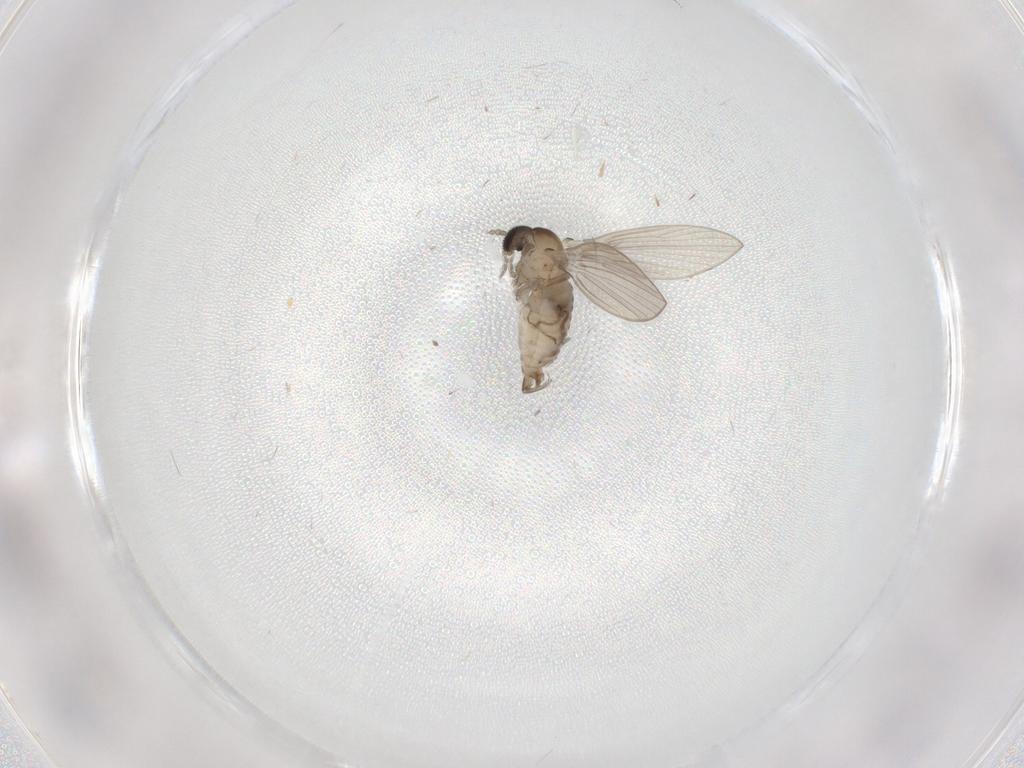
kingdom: Animalia
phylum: Arthropoda
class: Insecta
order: Diptera
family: Psychodidae
